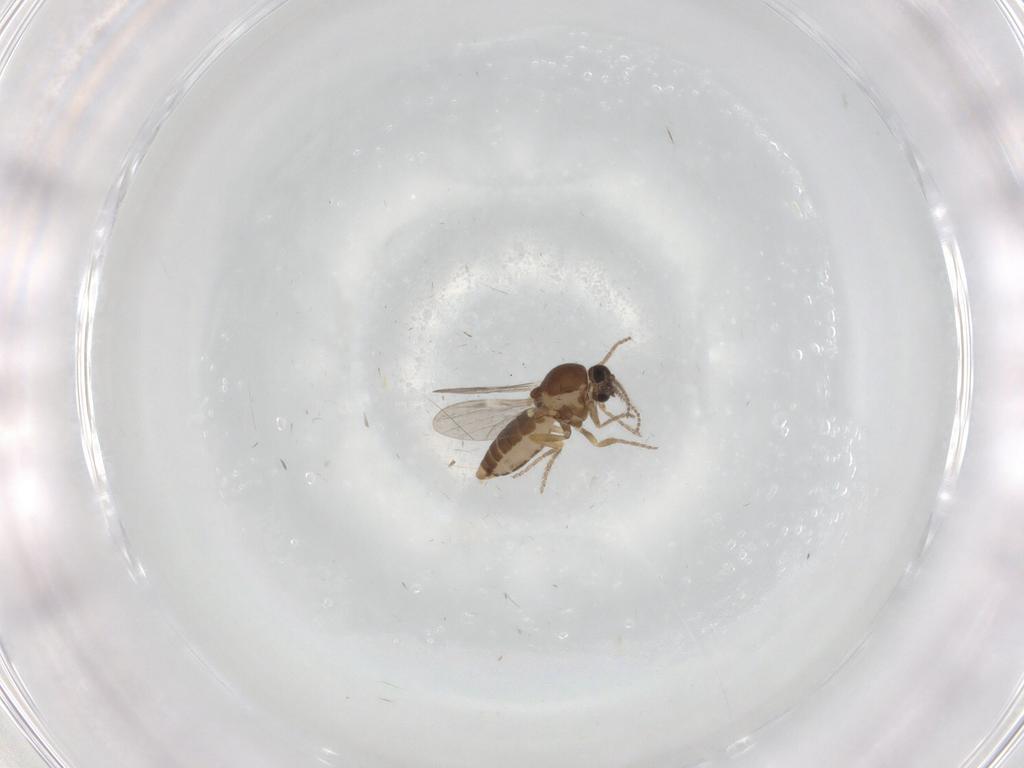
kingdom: Animalia
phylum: Arthropoda
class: Insecta
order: Diptera
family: Ceratopogonidae
